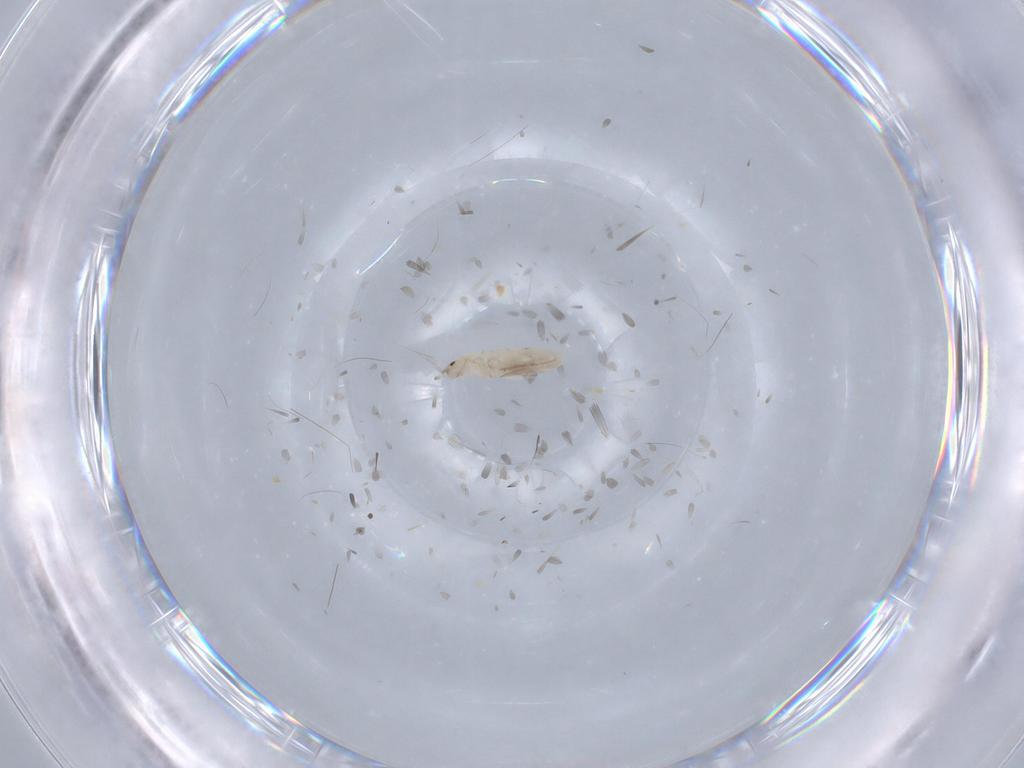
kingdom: Animalia
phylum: Arthropoda
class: Collembola
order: Entomobryomorpha
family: Entomobryidae
